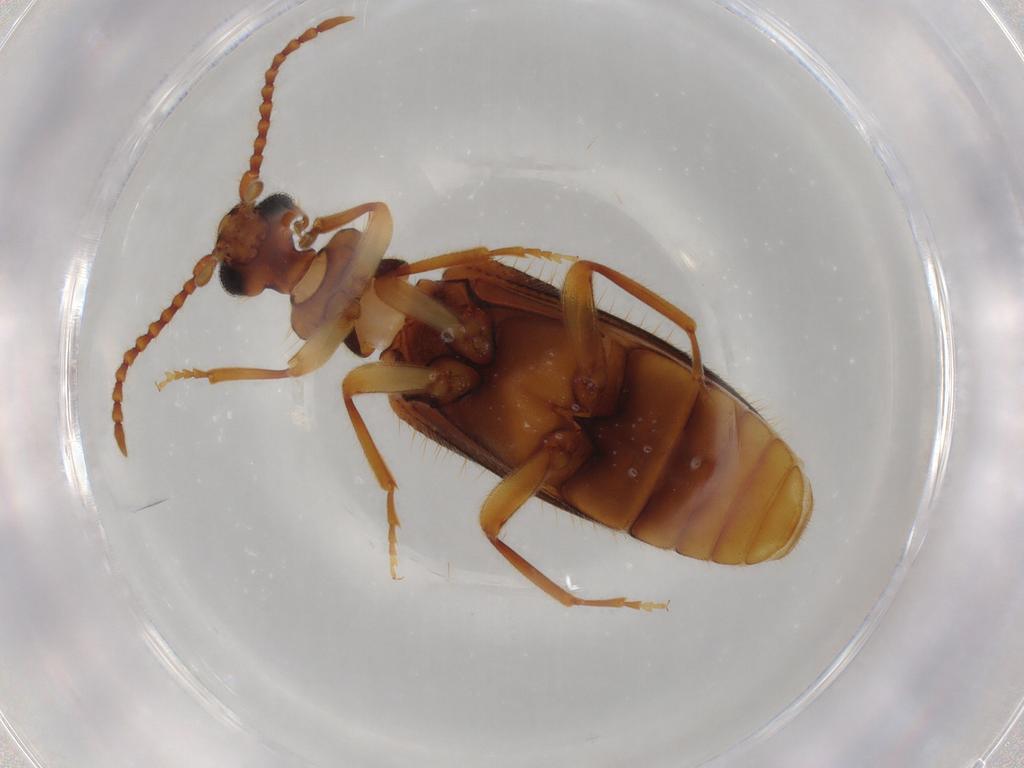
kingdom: Animalia
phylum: Arthropoda
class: Insecta
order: Coleoptera
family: Anthicidae
